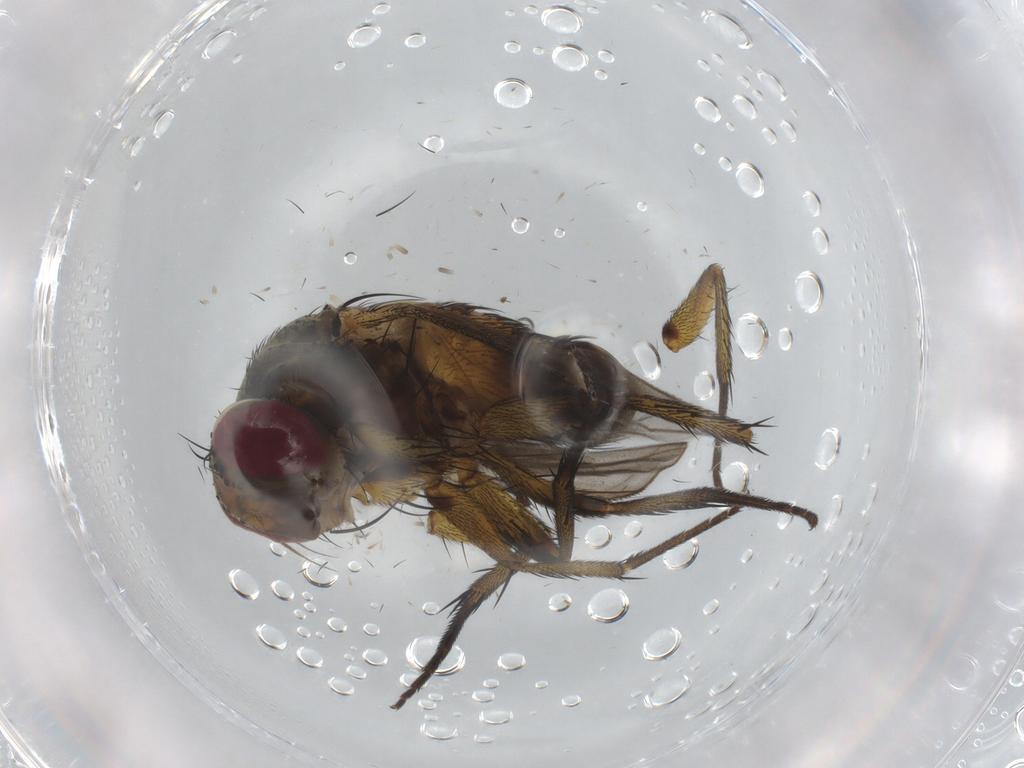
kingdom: Animalia
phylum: Arthropoda
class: Insecta
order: Diptera
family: Tachinidae
